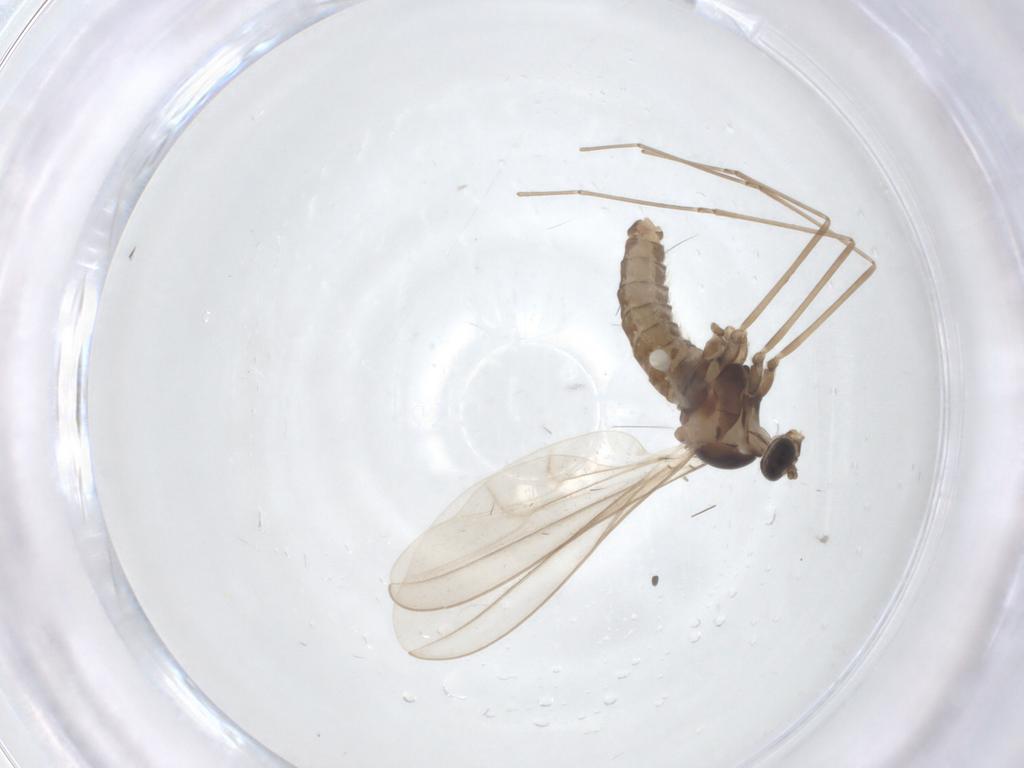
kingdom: Animalia
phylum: Arthropoda
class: Insecta
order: Diptera
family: Cecidomyiidae
